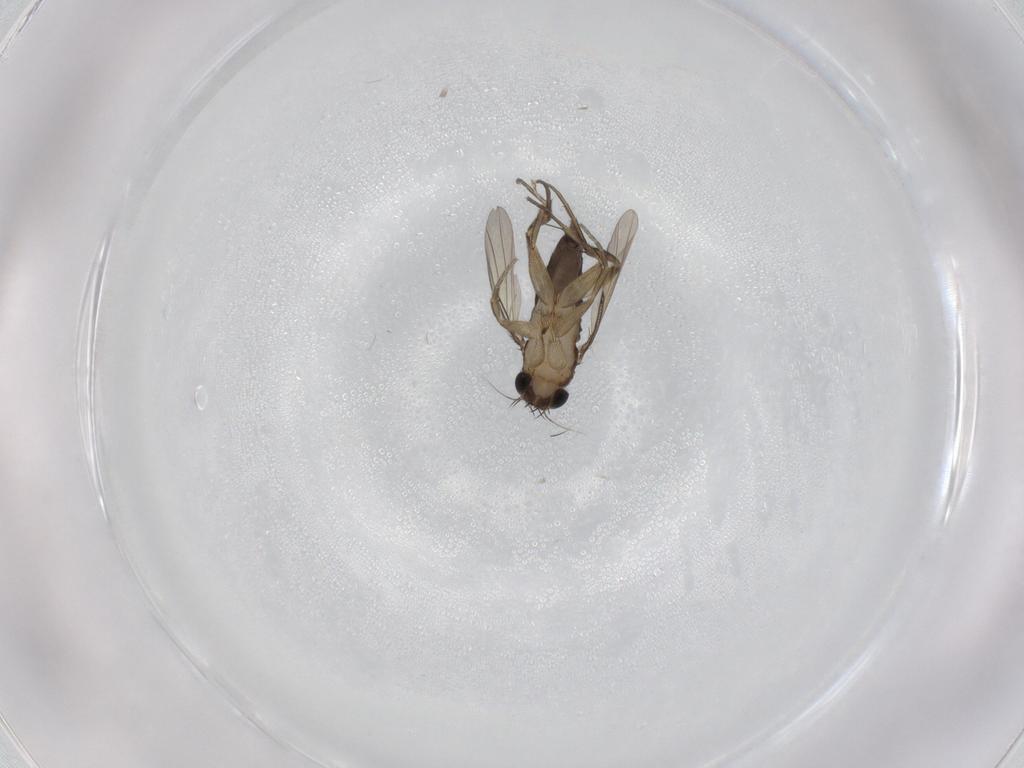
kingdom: Animalia
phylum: Arthropoda
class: Insecta
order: Diptera
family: Phoridae
